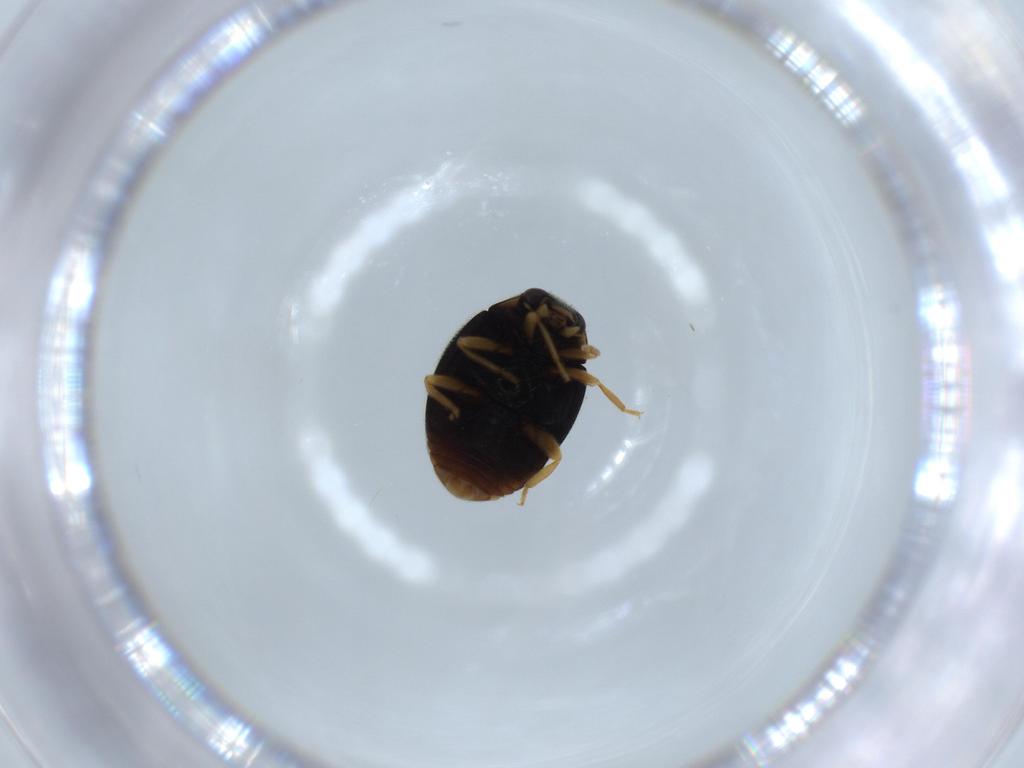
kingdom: Animalia
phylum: Arthropoda
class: Insecta
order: Coleoptera
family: Coccinellidae
